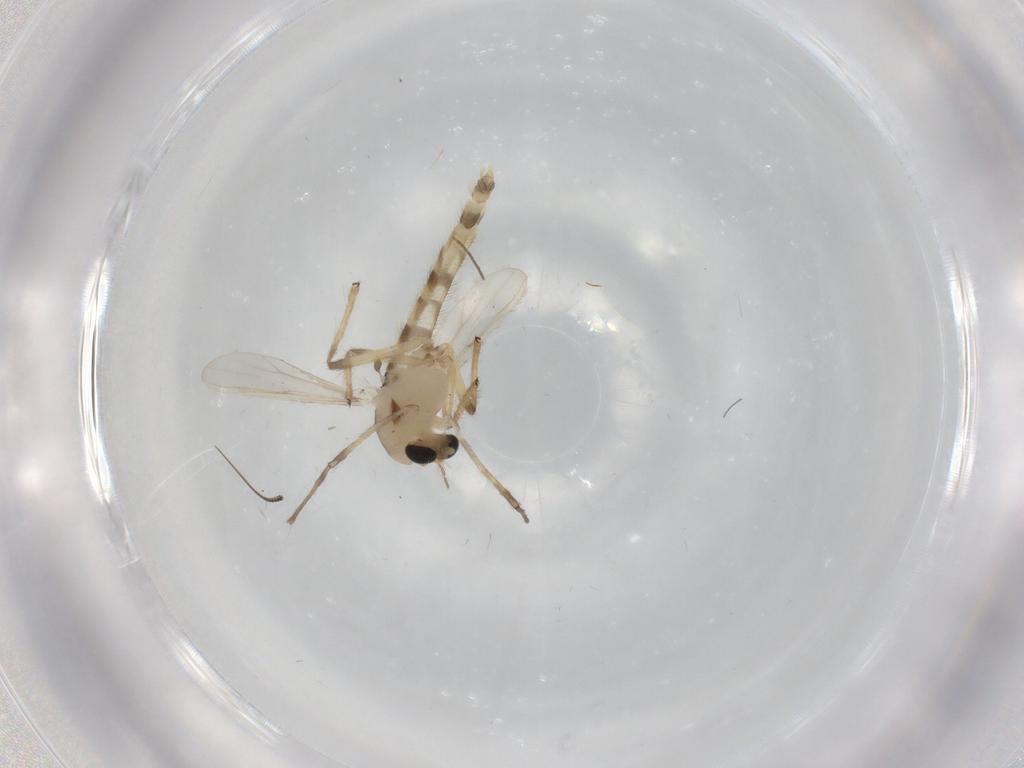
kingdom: Animalia
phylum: Arthropoda
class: Insecta
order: Diptera
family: Chironomidae
